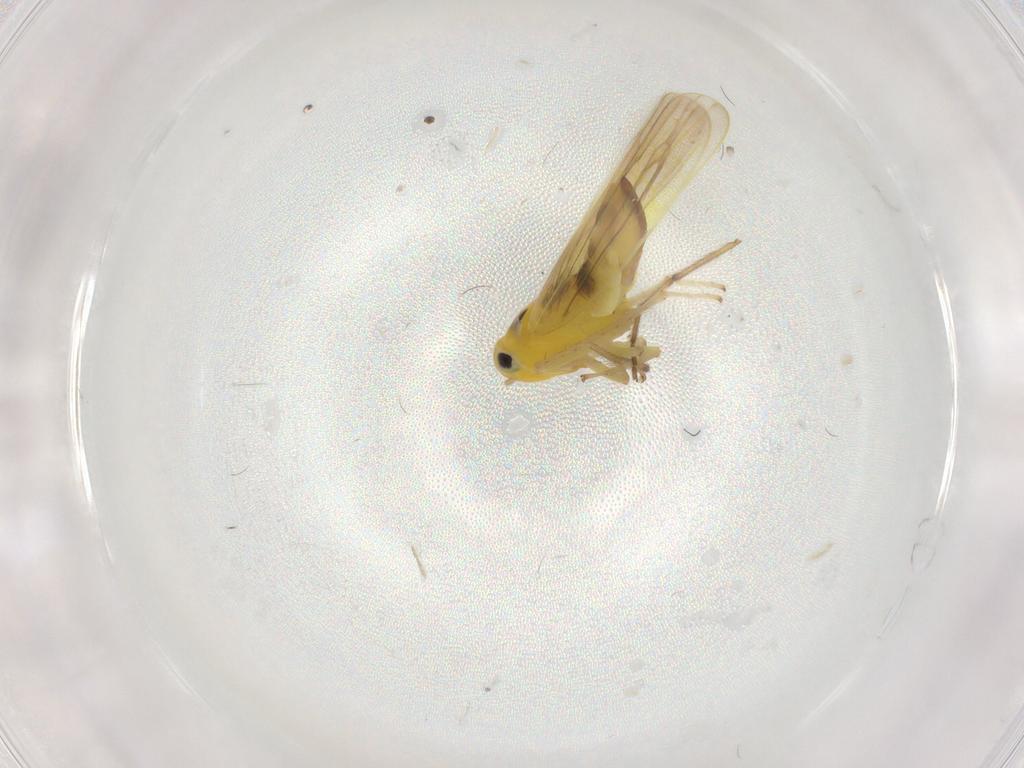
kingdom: Animalia
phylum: Arthropoda
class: Insecta
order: Hemiptera
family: Cicadellidae
